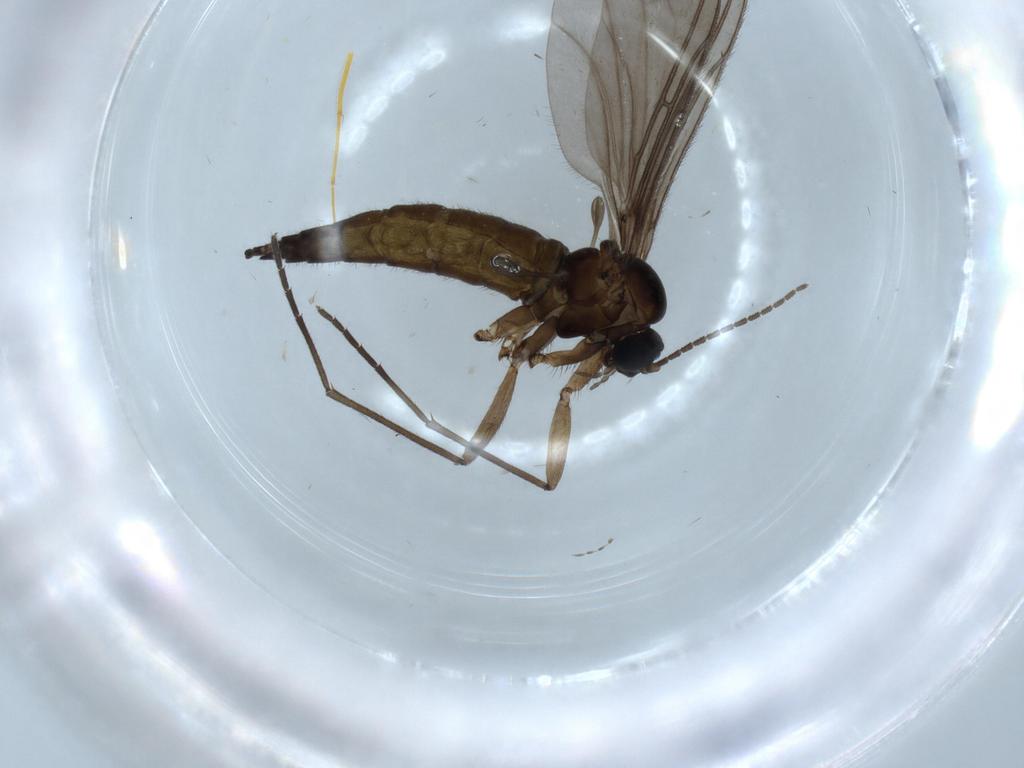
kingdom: Animalia
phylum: Arthropoda
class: Insecta
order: Diptera
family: Sciaridae
